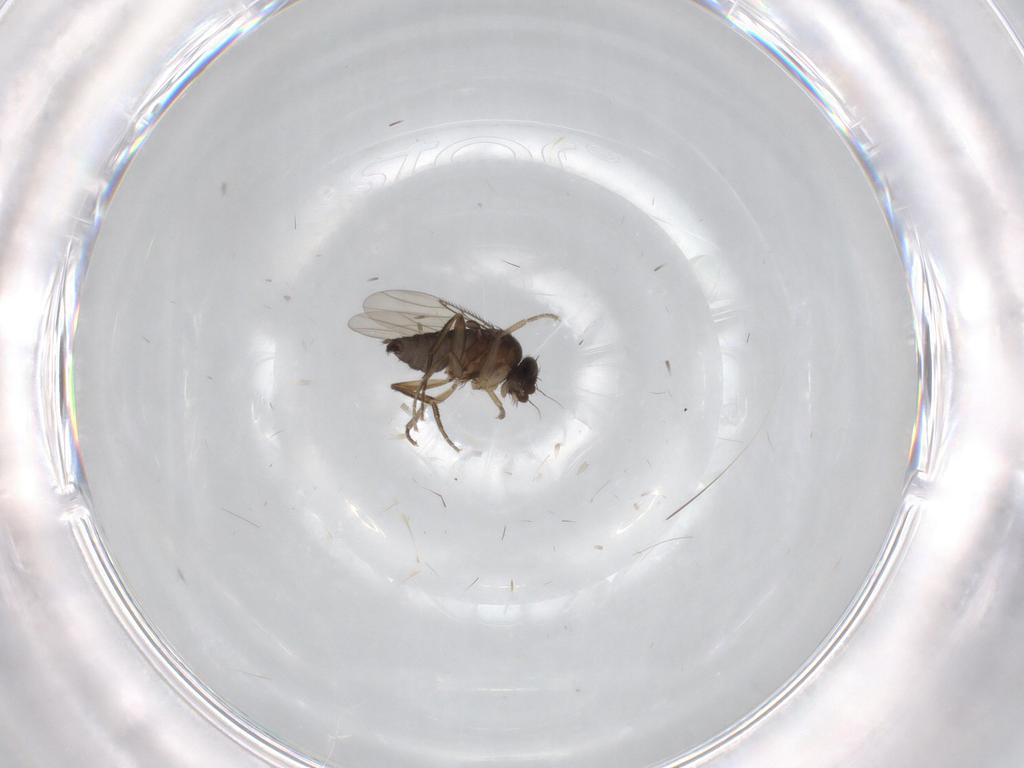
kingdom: Animalia
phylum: Arthropoda
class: Insecta
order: Diptera
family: Phoridae
